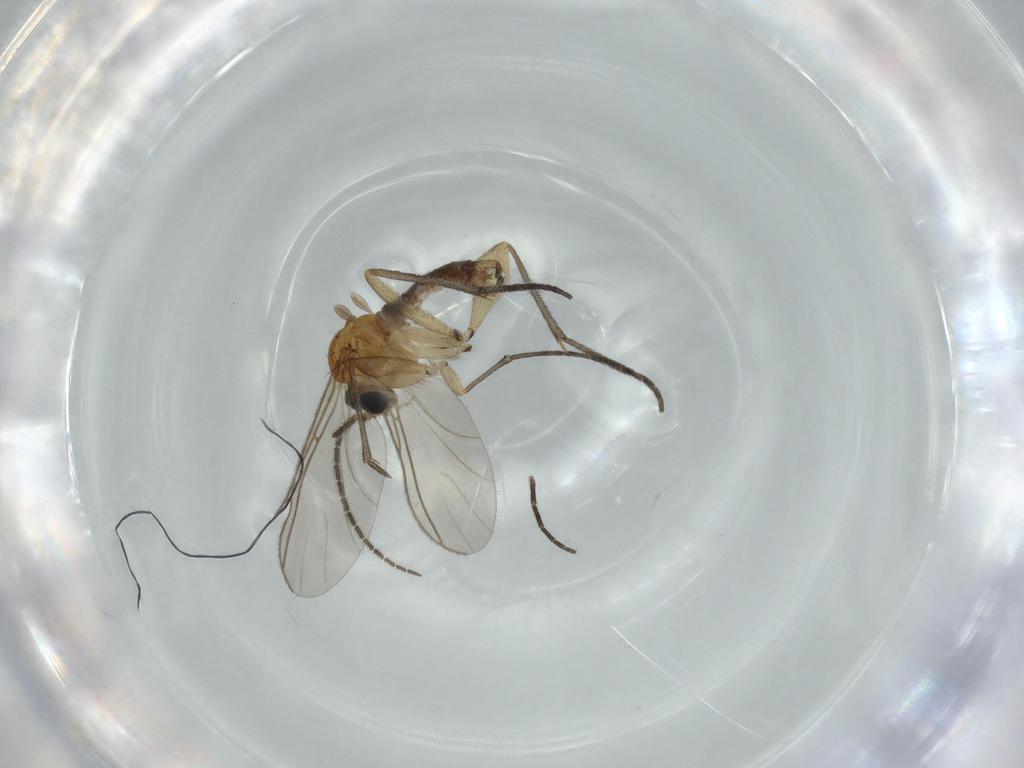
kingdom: Animalia
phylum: Arthropoda
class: Insecta
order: Diptera
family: Sciaridae
